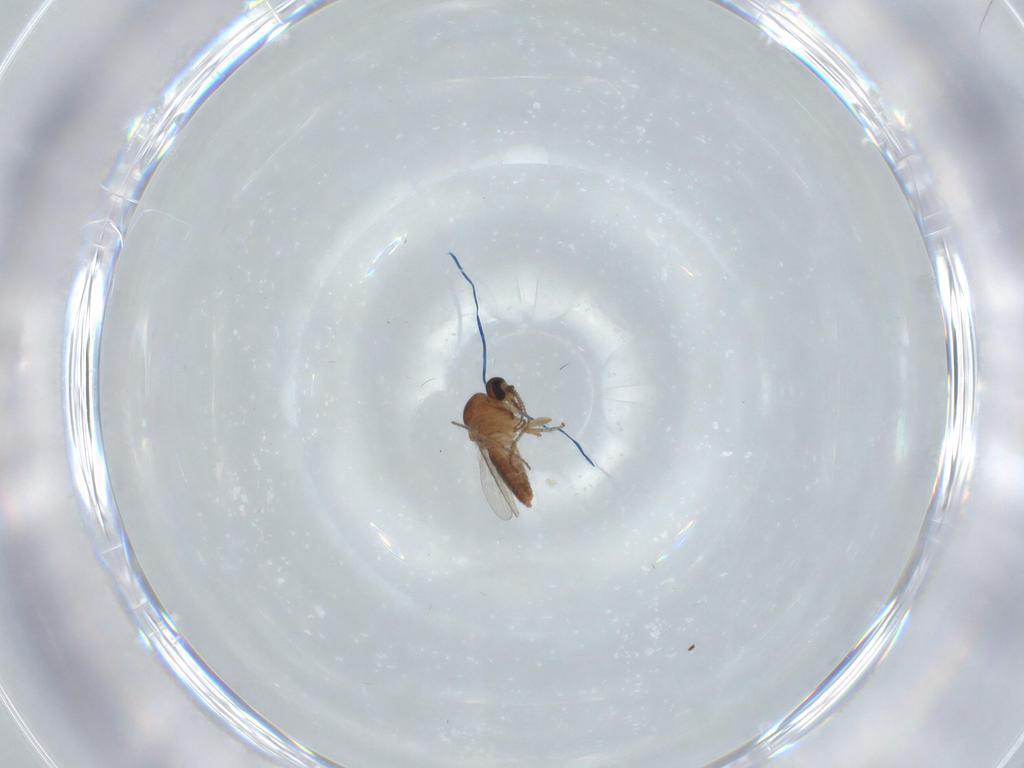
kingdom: Animalia
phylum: Arthropoda
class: Insecta
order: Diptera
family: Ceratopogonidae
